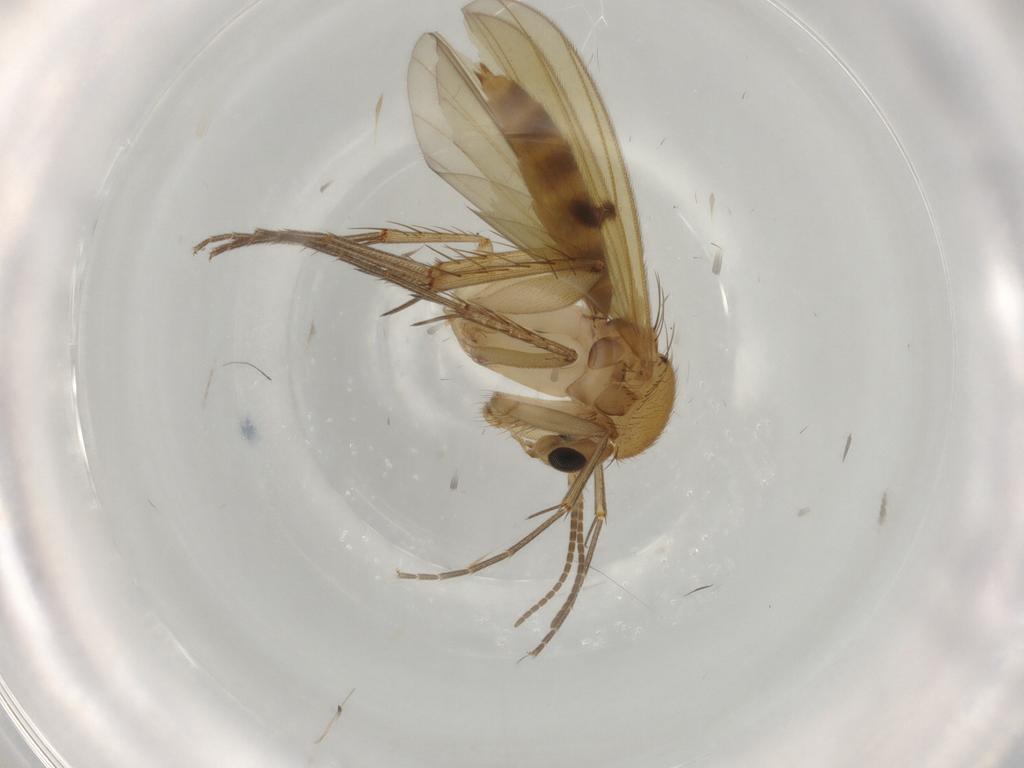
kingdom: Animalia
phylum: Arthropoda
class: Insecta
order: Diptera
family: Mycetophilidae
